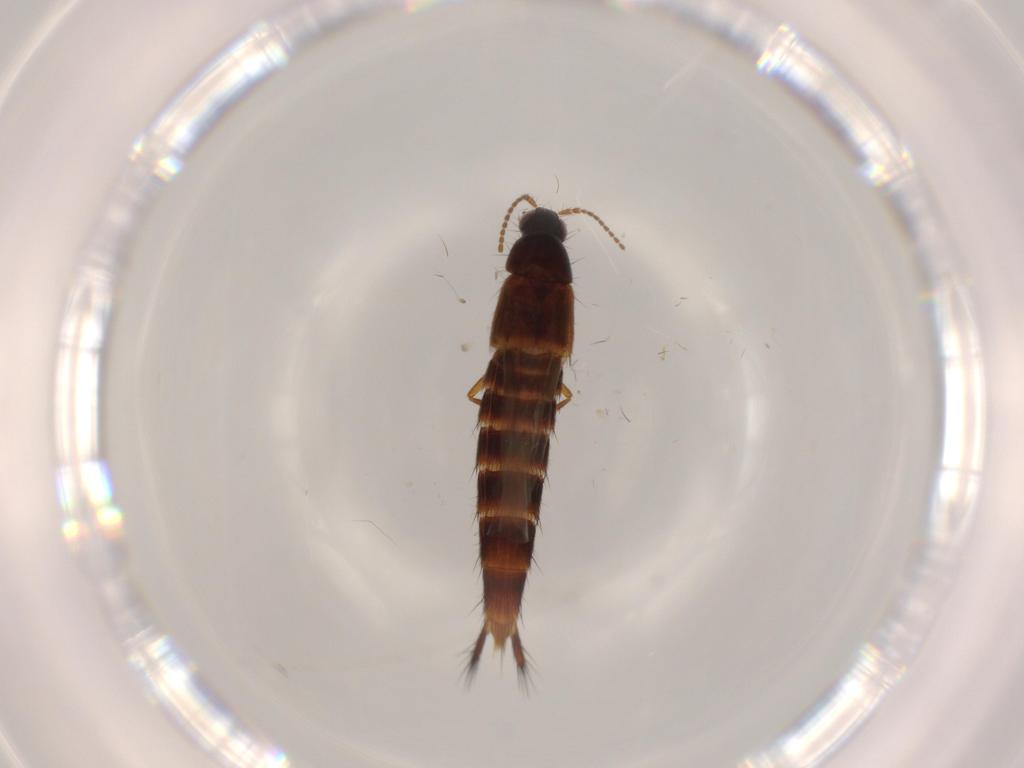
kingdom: Animalia
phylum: Arthropoda
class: Insecta
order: Coleoptera
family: Staphylinidae
